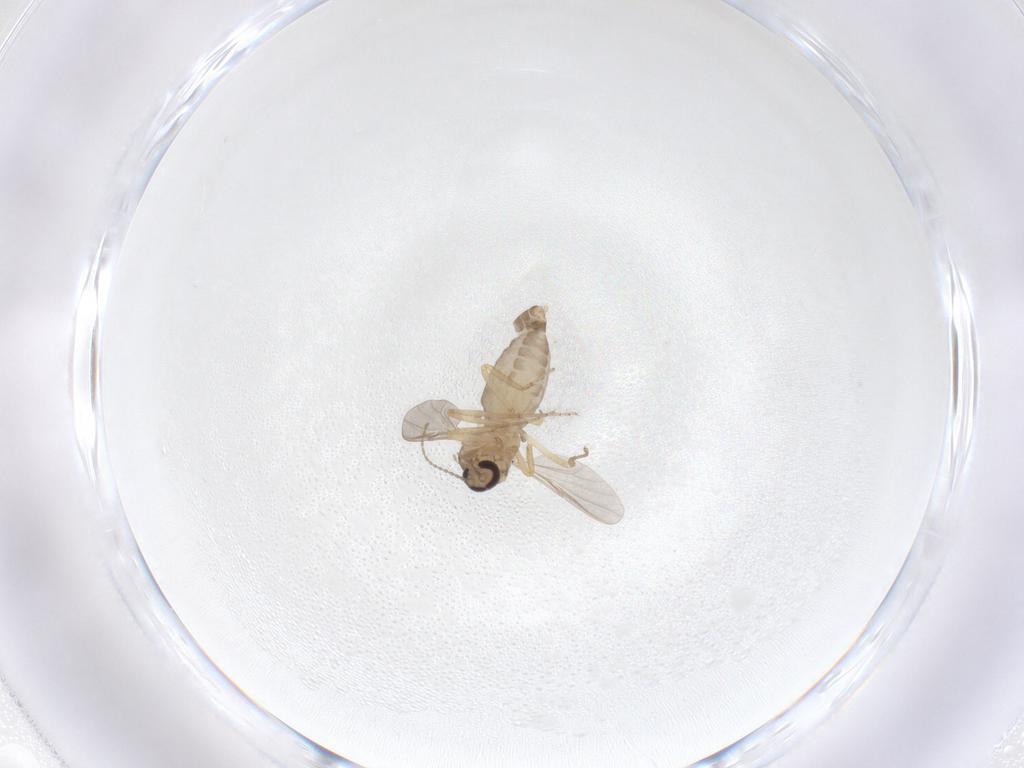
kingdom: Animalia
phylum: Arthropoda
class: Insecta
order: Diptera
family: Ceratopogonidae
